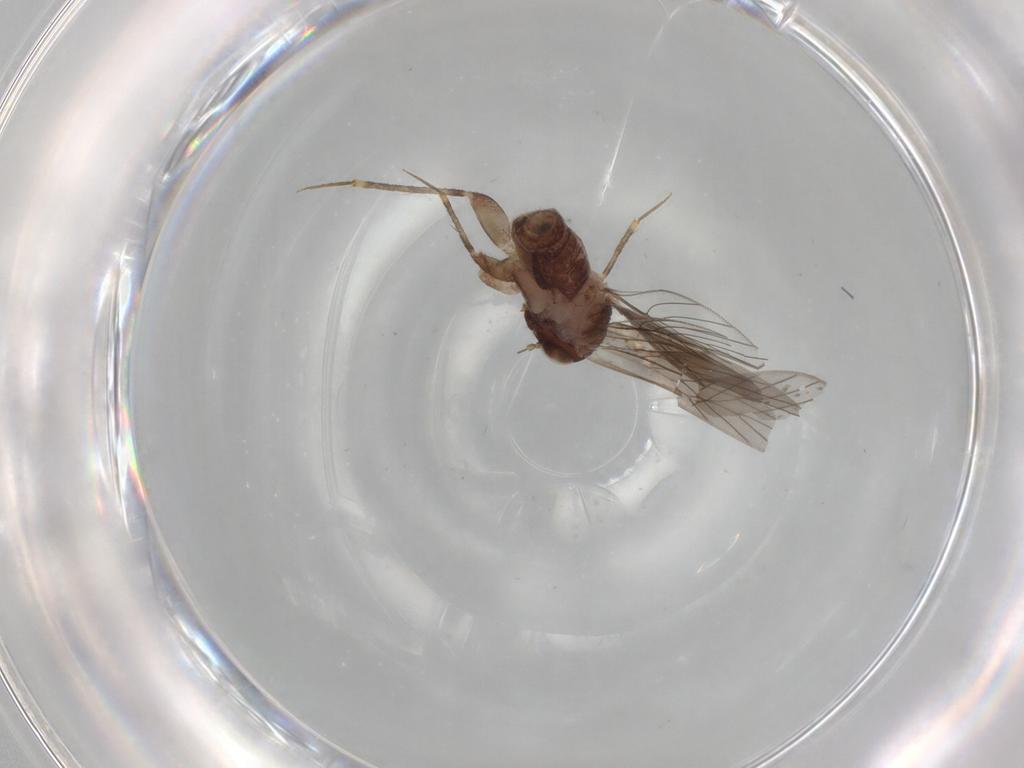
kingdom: Animalia
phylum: Arthropoda
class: Insecta
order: Psocodea
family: Lepidopsocidae
